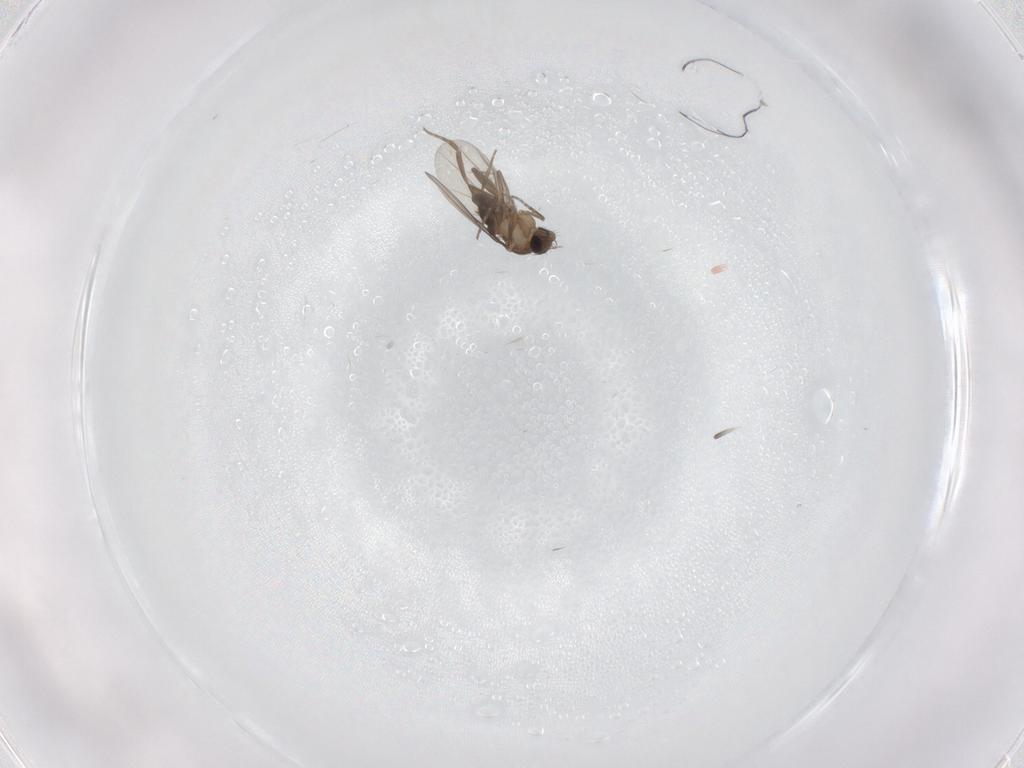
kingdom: Animalia
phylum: Arthropoda
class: Insecta
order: Diptera
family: Phoridae
